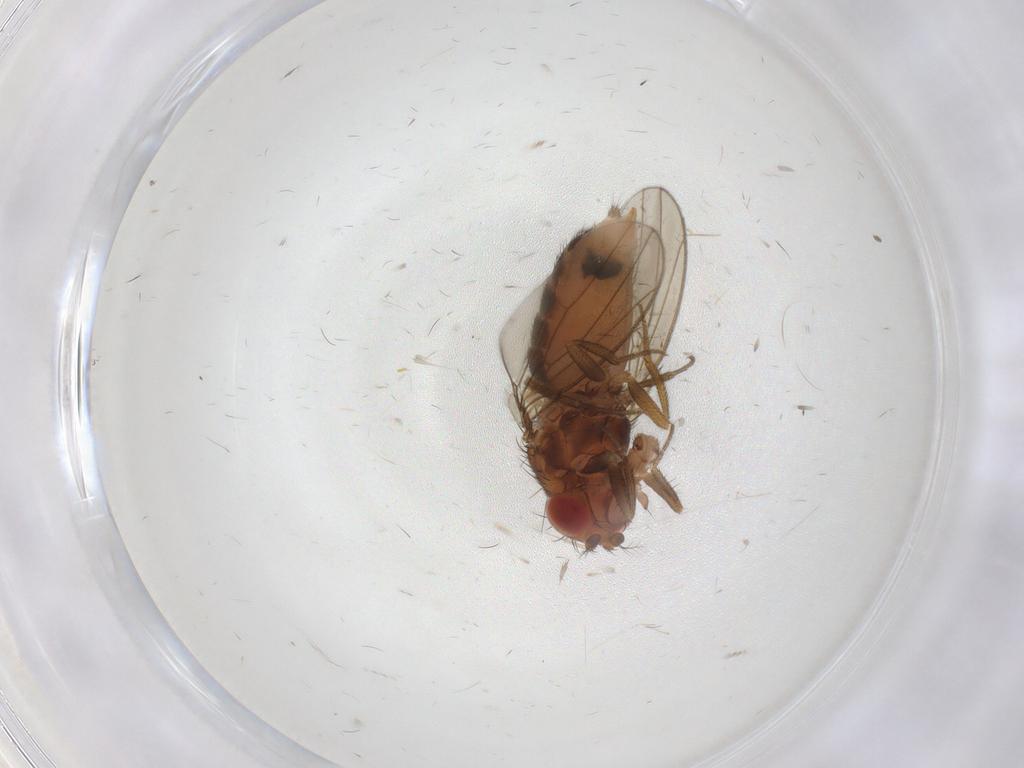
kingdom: Animalia
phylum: Arthropoda
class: Insecta
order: Diptera
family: Drosophilidae
